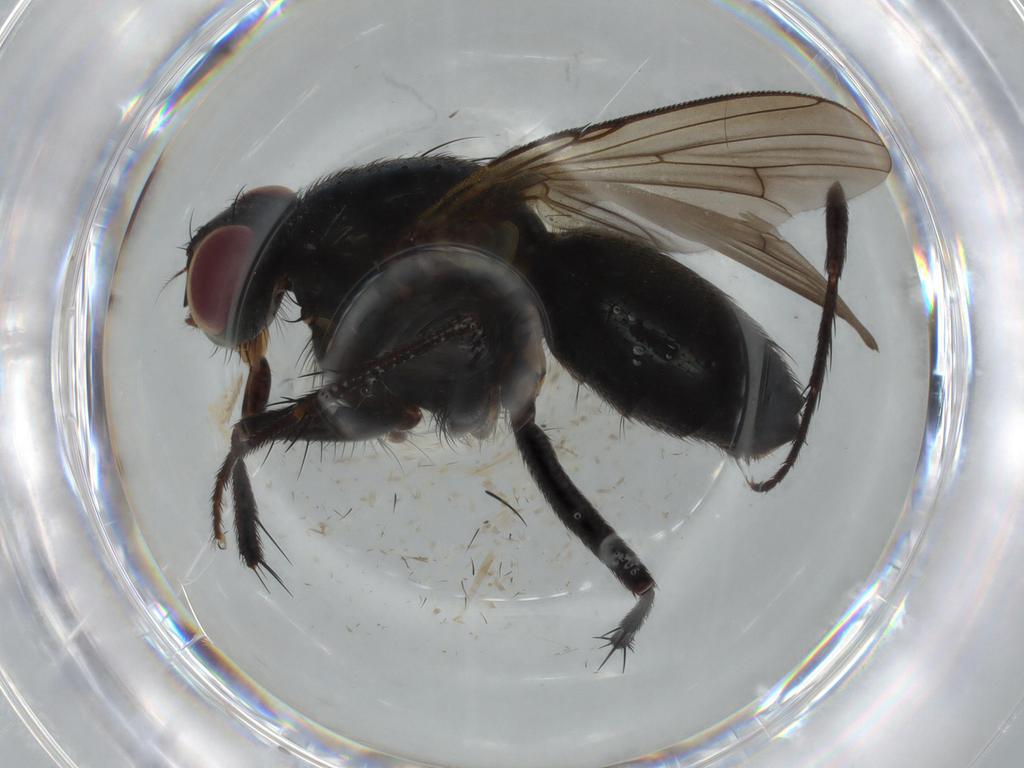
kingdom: Animalia
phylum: Arthropoda
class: Insecta
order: Diptera
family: Muscidae
